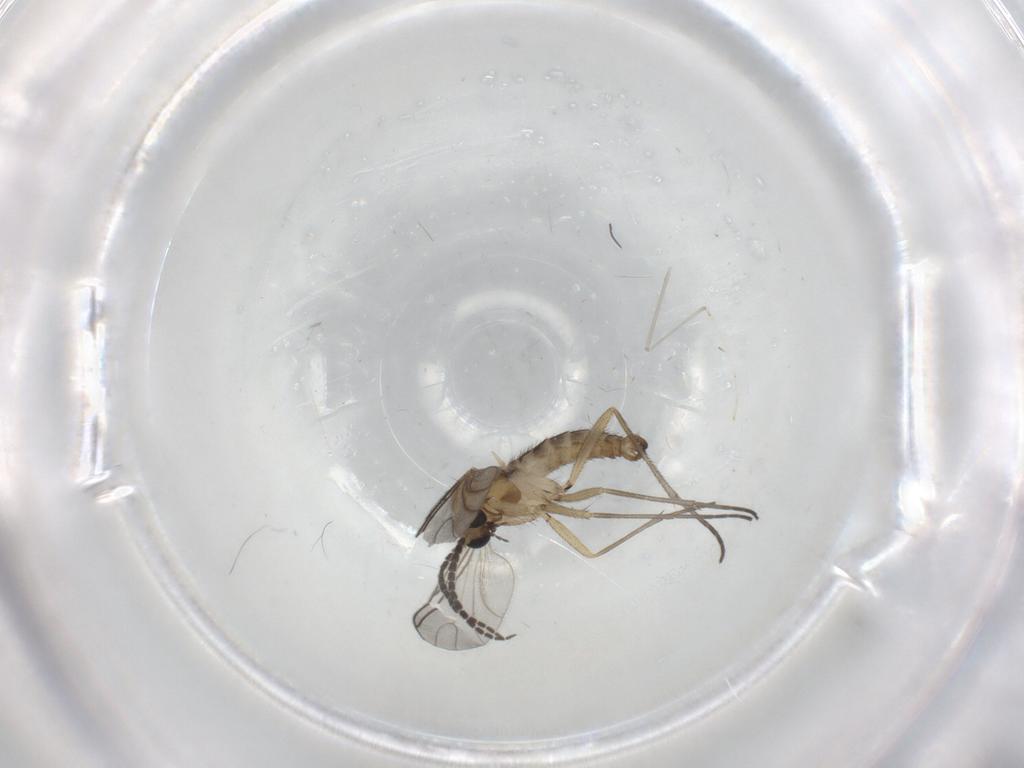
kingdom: Animalia
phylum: Arthropoda
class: Insecta
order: Diptera
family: Sciaridae
